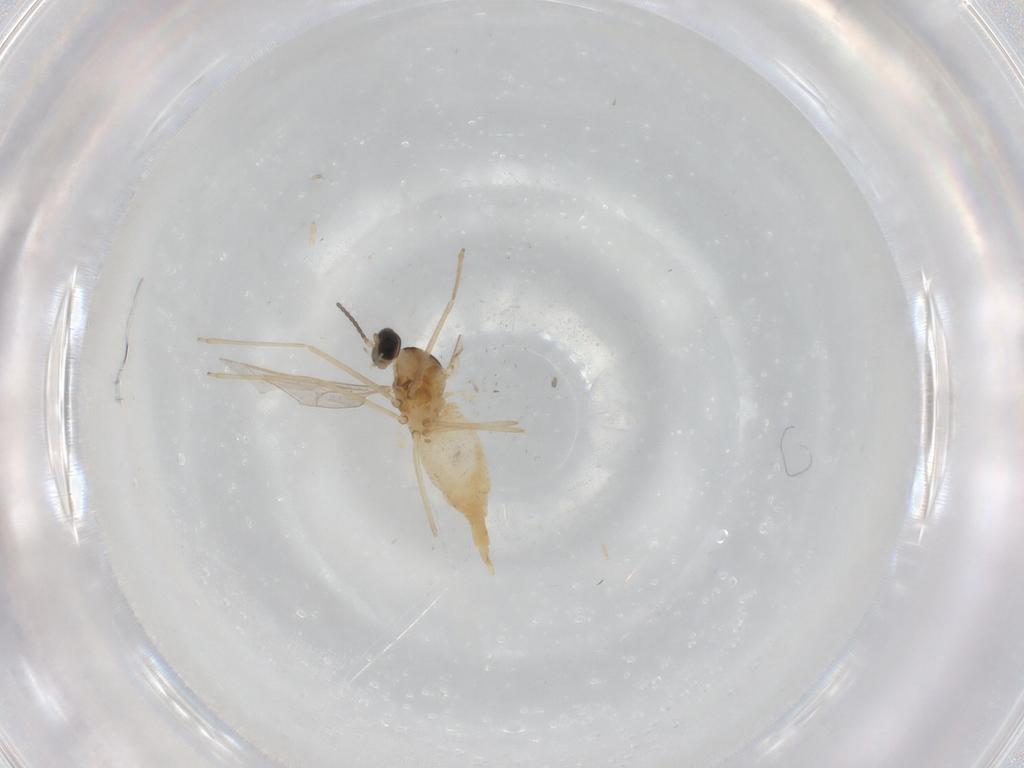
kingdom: Animalia
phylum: Arthropoda
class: Insecta
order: Diptera
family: Cecidomyiidae
